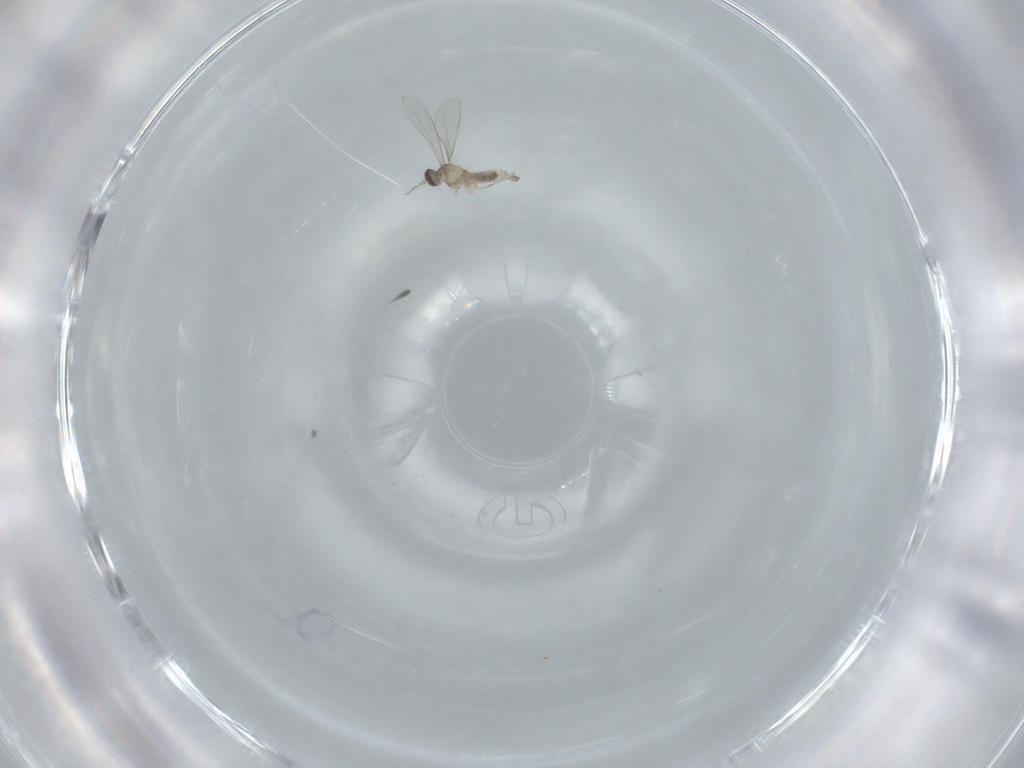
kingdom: Animalia
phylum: Arthropoda
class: Insecta
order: Diptera
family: Phoridae
